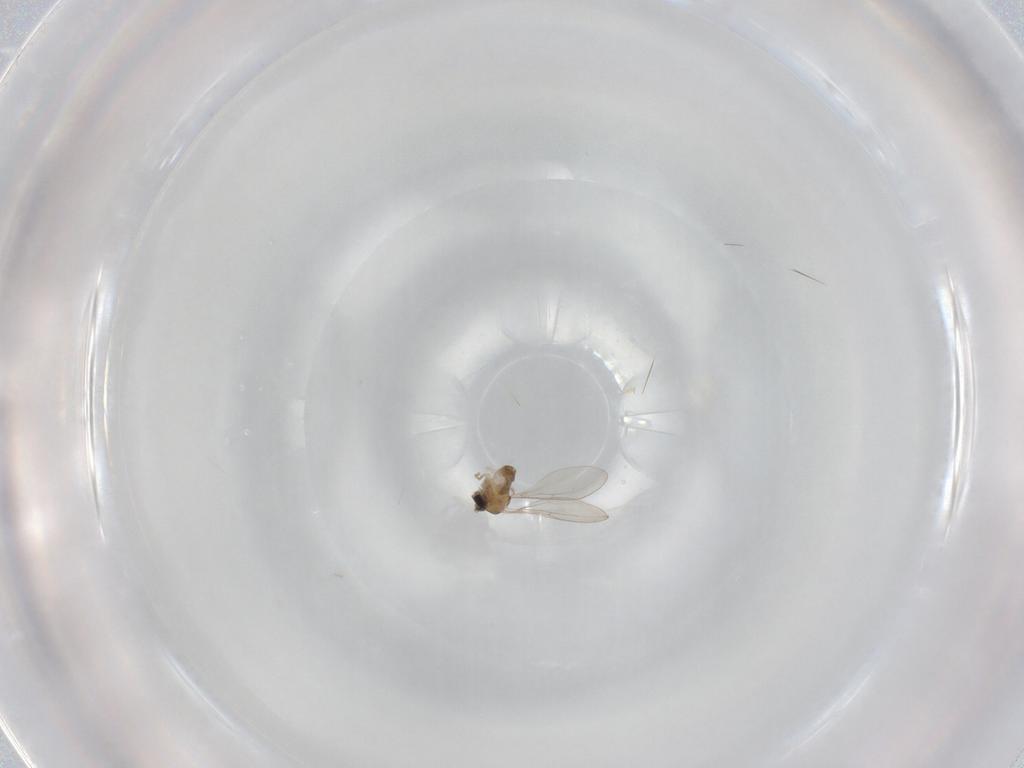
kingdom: Animalia
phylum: Arthropoda
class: Insecta
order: Diptera
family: Cecidomyiidae
